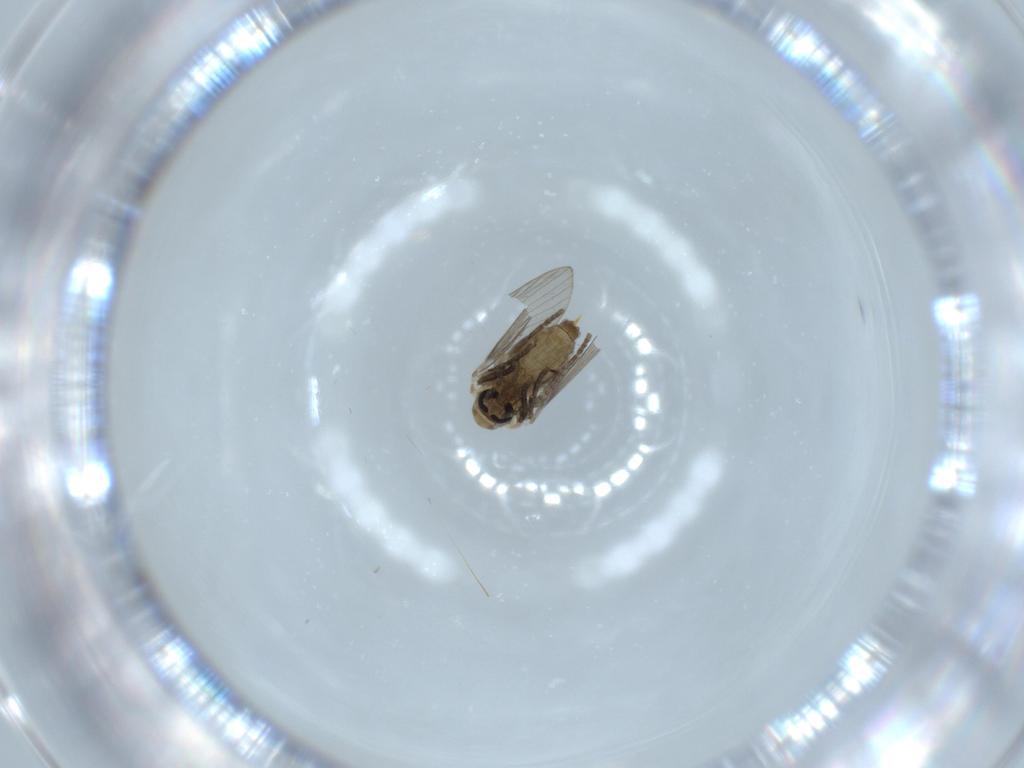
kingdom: Animalia
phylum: Arthropoda
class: Insecta
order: Diptera
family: Psychodidae
